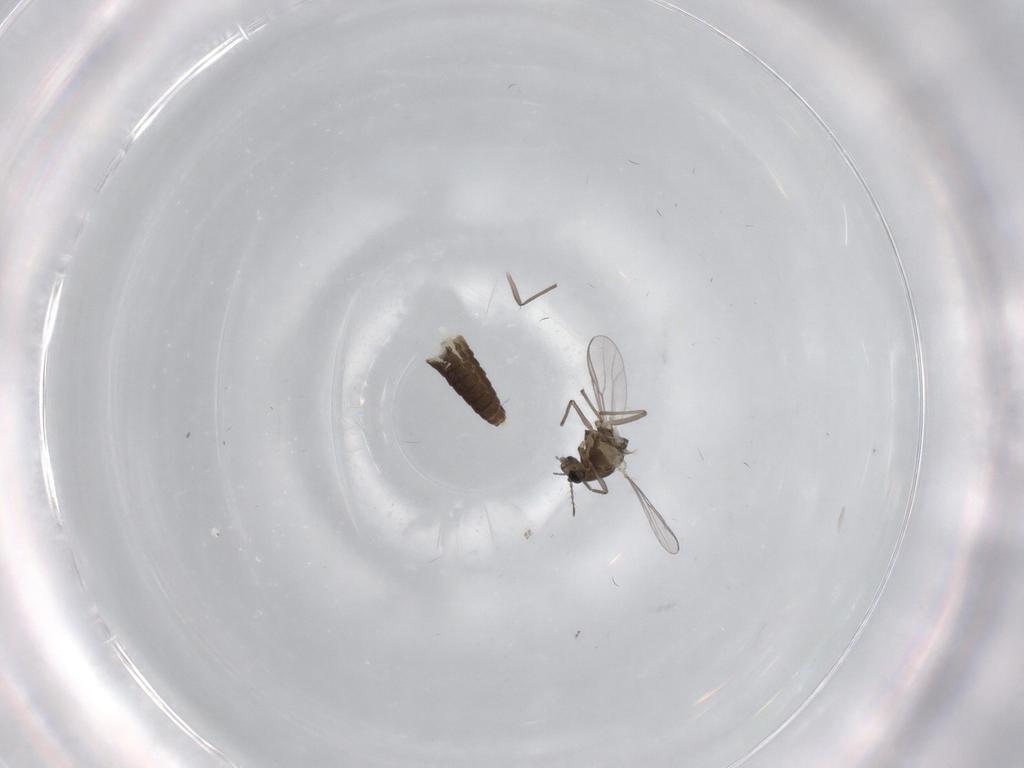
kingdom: Animalia
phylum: Arthropoda
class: Insecta
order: Diptera
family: Chironomidae
